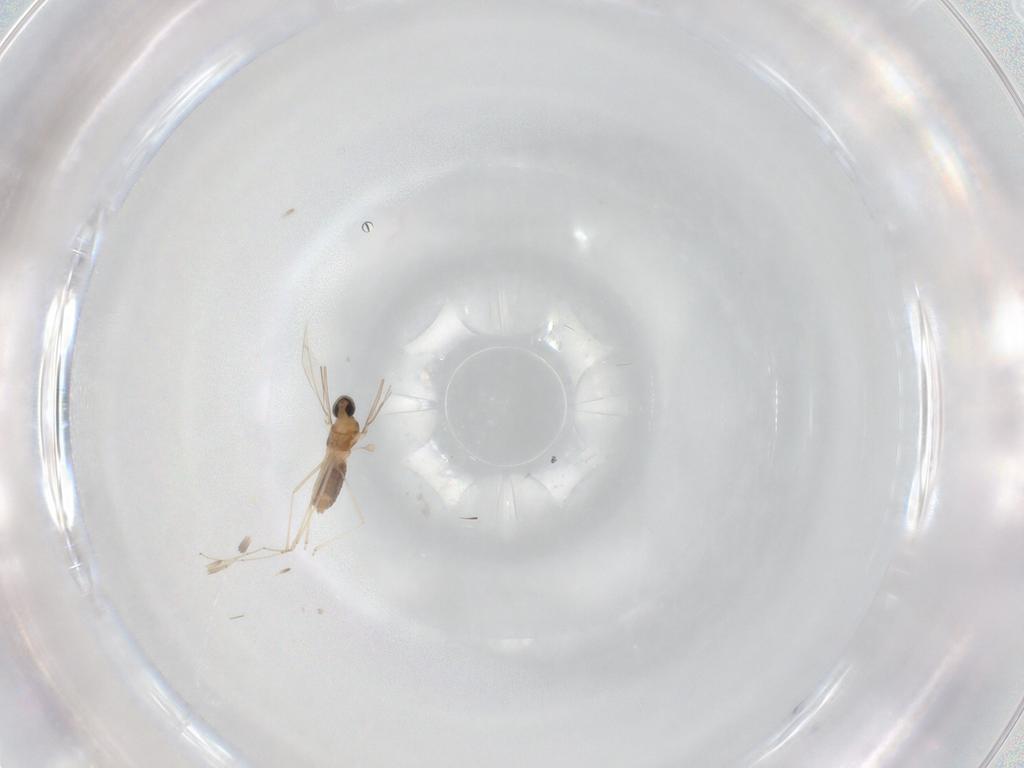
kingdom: Animalia
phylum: Arthropoda
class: Insecta
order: Diptera
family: Cecidomyiidae
